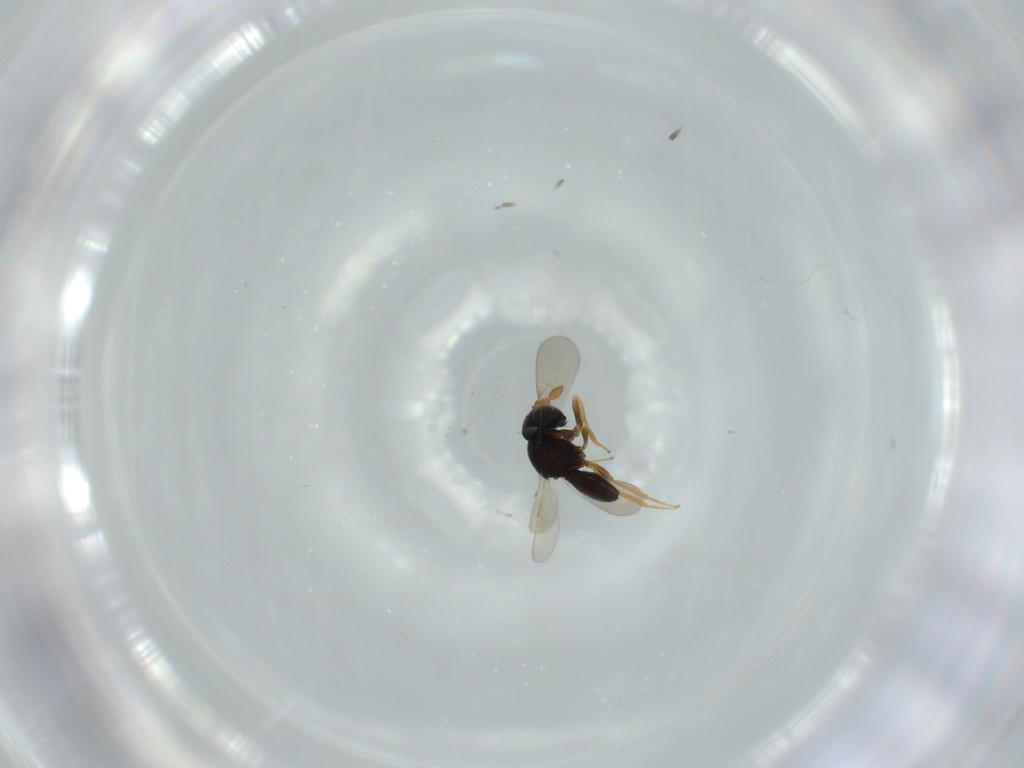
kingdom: Animalia
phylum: Arthropoda
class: Insecta
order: Hymenoptera
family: Scelionidae
